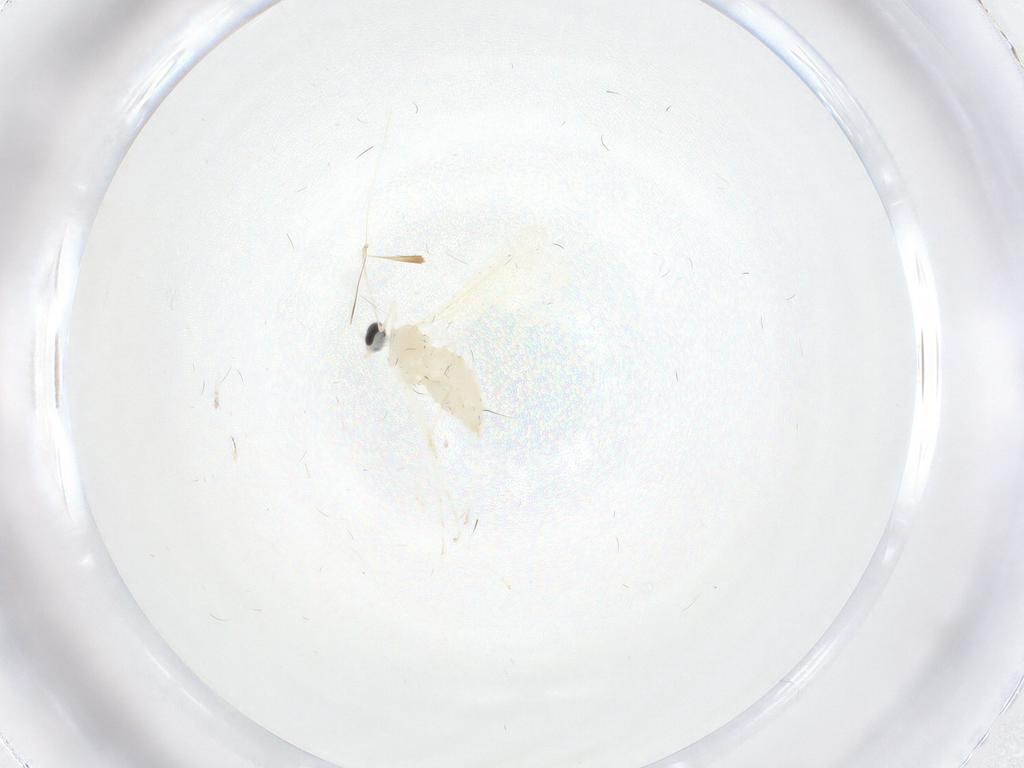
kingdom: Animalia
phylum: Arthropoda
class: Insecta
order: Diptera
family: Cecidomyiidae
